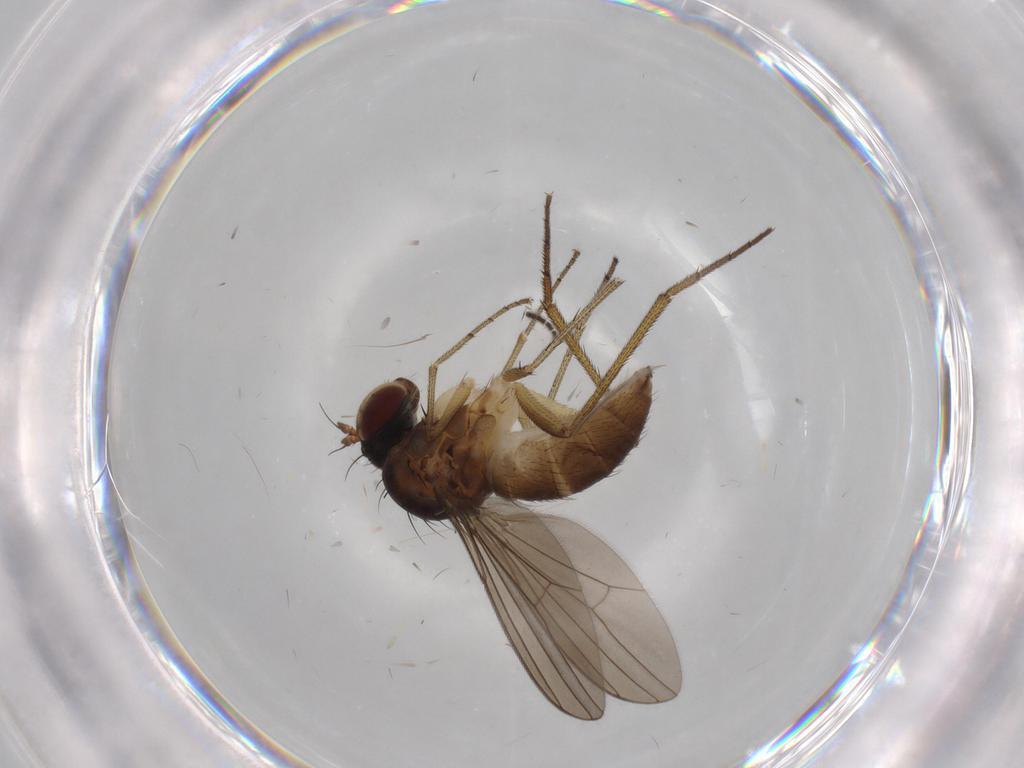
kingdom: Animalia
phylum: Arthropoda
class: Insecta
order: Diptera
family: Dolichopodidae
